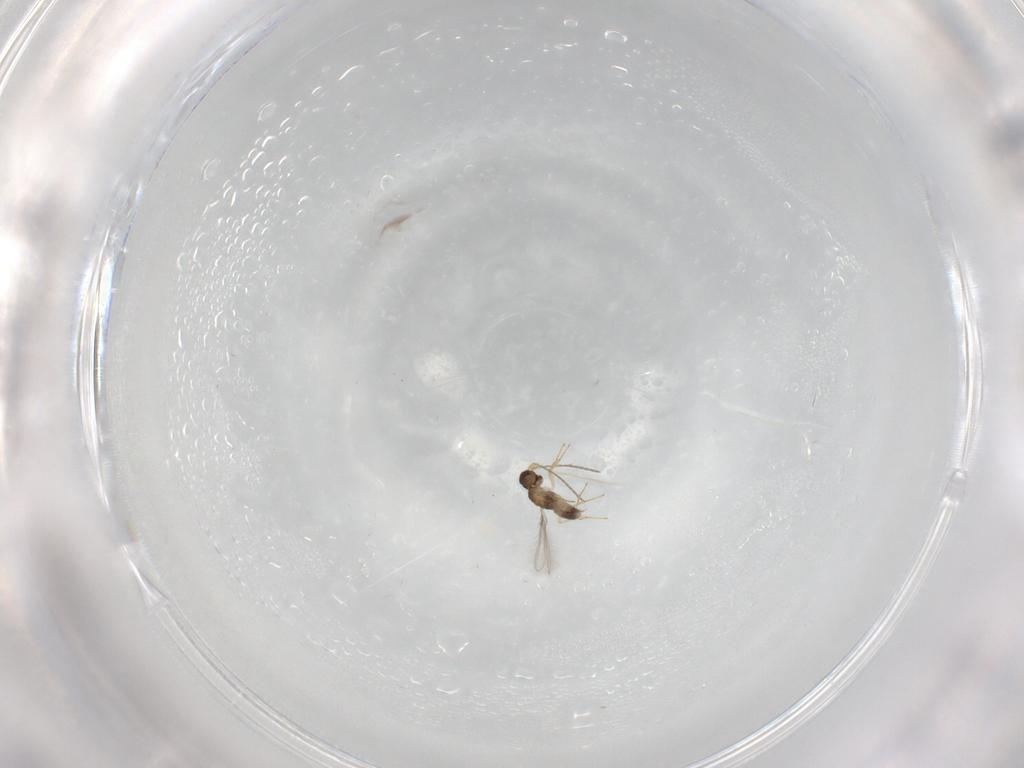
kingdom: Animalia
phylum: Arthropoda
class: Insecta
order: Hymenoptera
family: Mymaridae
